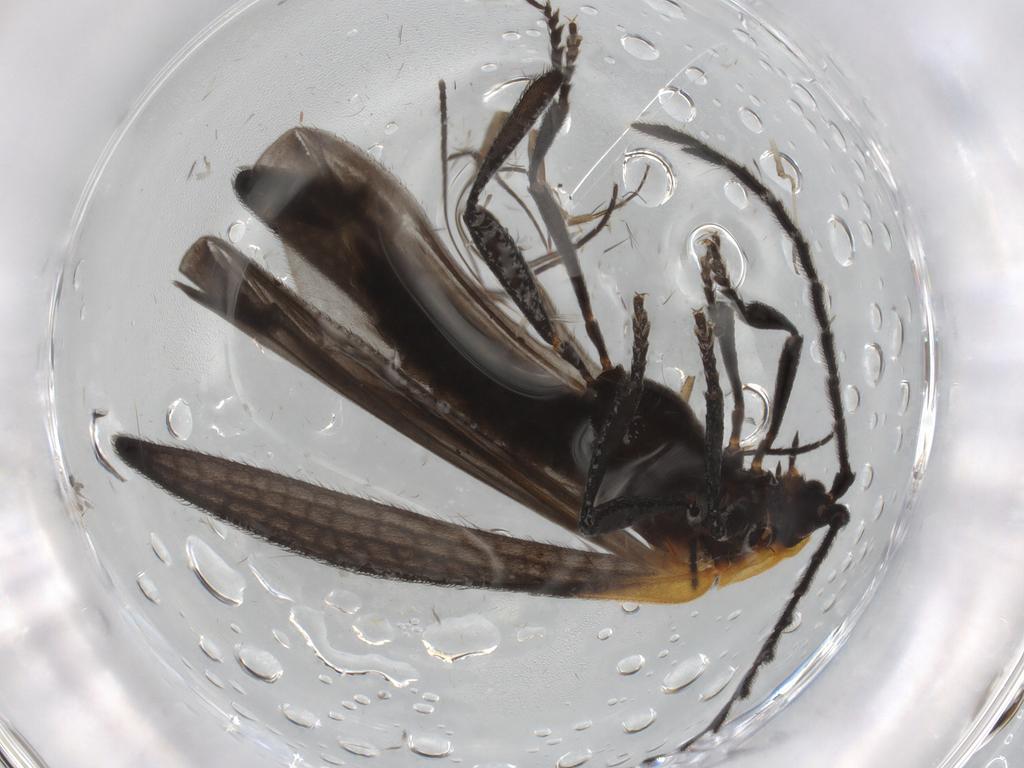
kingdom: Animalia
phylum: Arthropoda
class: Insecta
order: Coleoptera
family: Lycidae
